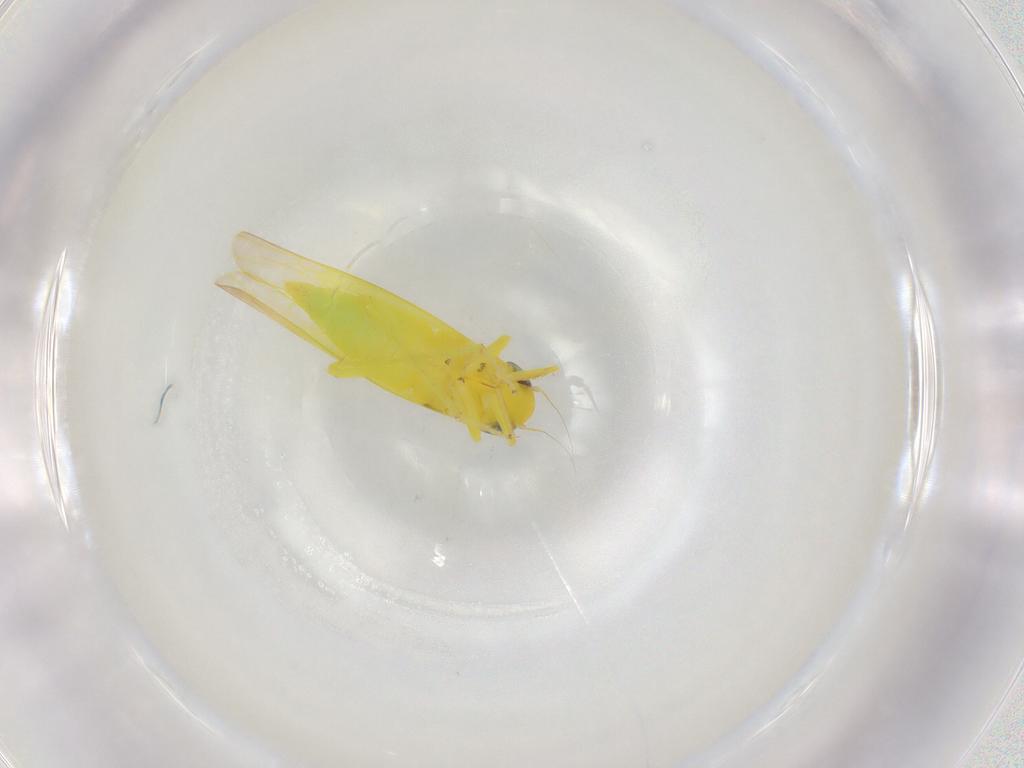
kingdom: Animalia
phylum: Arthropoda
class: Insecta
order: Hemiptera
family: Cicadellidae
